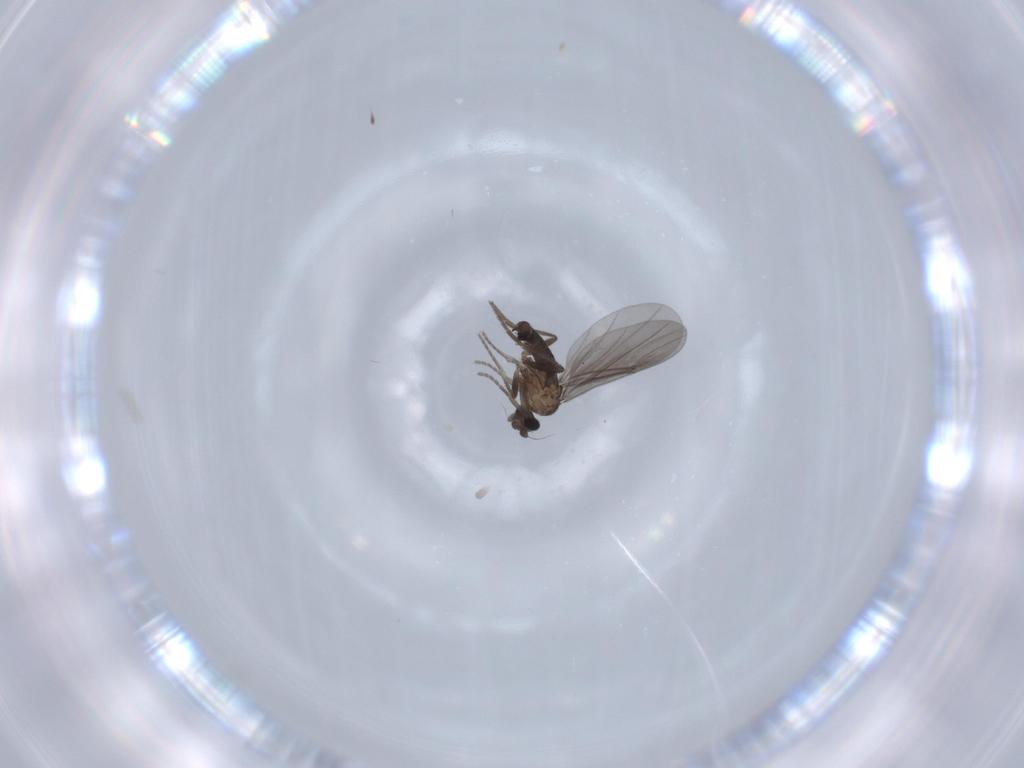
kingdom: Animalia
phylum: Arthropoda
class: Insecta
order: Diptera
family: Phoridae
